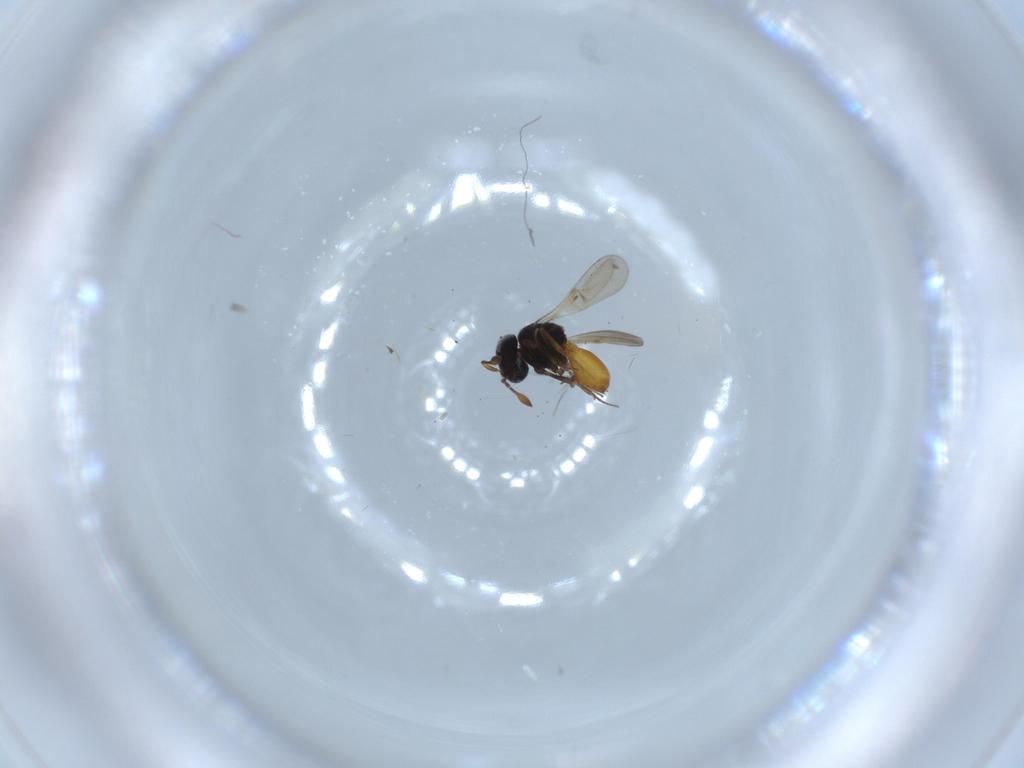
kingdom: Animalia
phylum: Arthropoda
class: Insecta
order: Hymenoptera
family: Scelionidae
